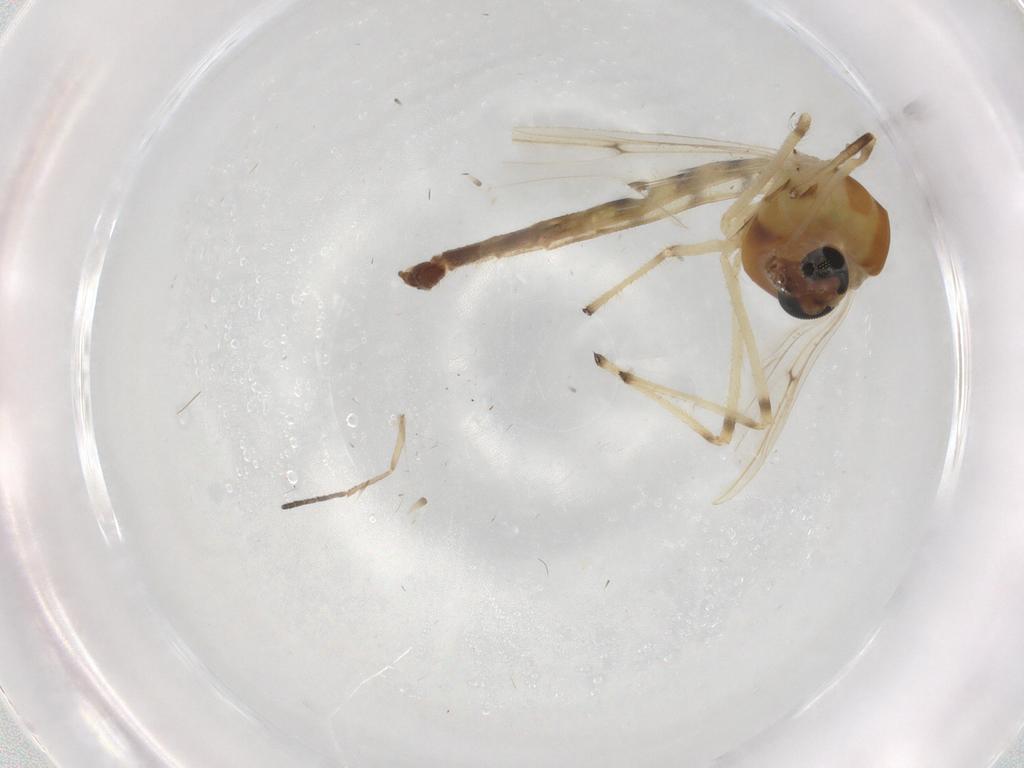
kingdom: Animalia
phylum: Arthropoda
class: Insecta
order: Diptera
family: Chironomidae
